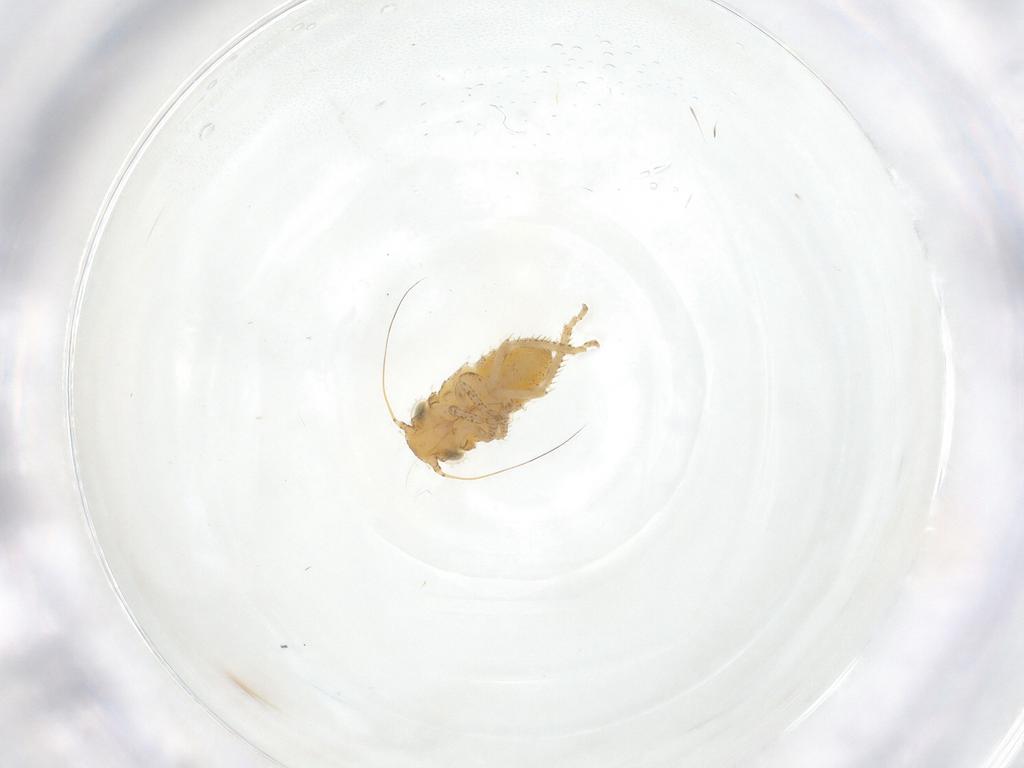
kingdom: Animalia
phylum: Arthropoda
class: Insecta
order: Hemiptera
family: Cicadellidae
